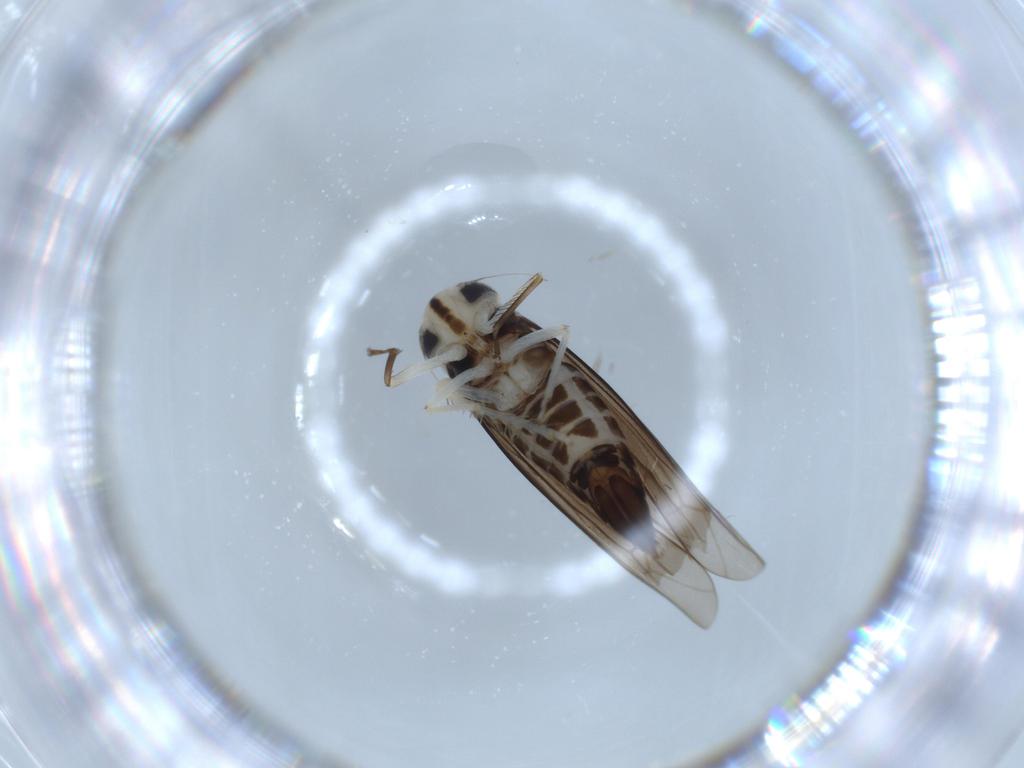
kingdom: Animalia
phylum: Arthropoda
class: Insecta
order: Hemiptera
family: Cicadellidae
